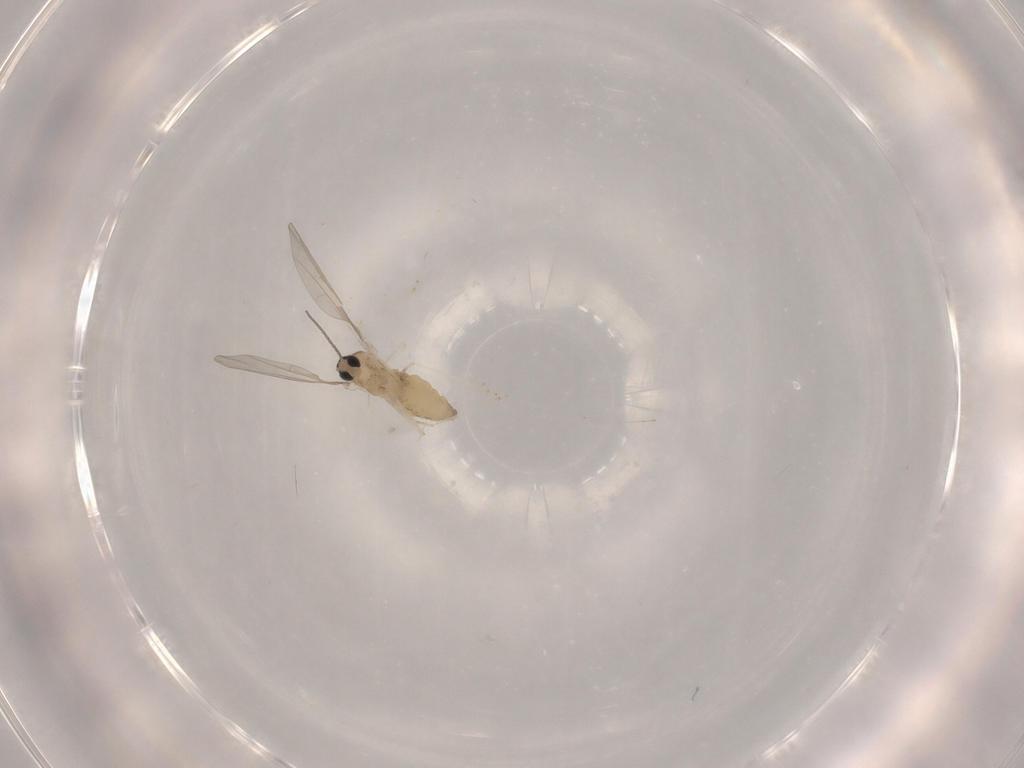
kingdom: Animalia
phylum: Arthropoda
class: Insecta
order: Diptera
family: Cecidomyiidae
